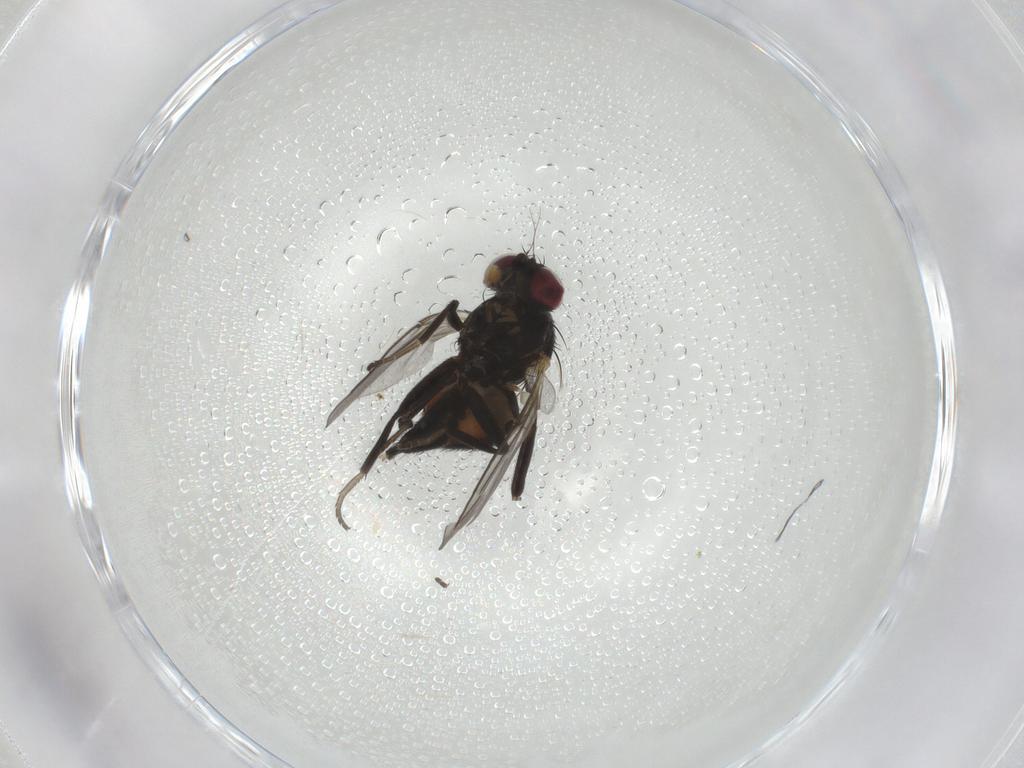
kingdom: Animalia
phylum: Arthropoda
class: Insecta
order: Diptera
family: Agromyzidae
